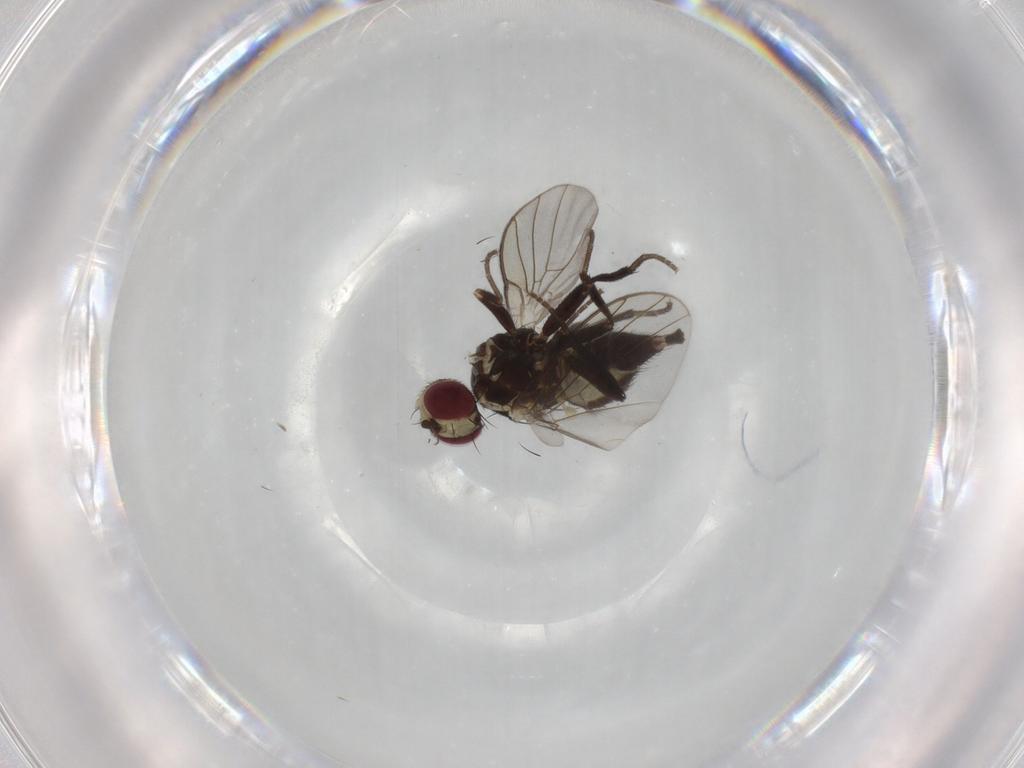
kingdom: Animalia
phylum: Arthropoda
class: Insecta
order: Diptera
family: Agromyzidae
